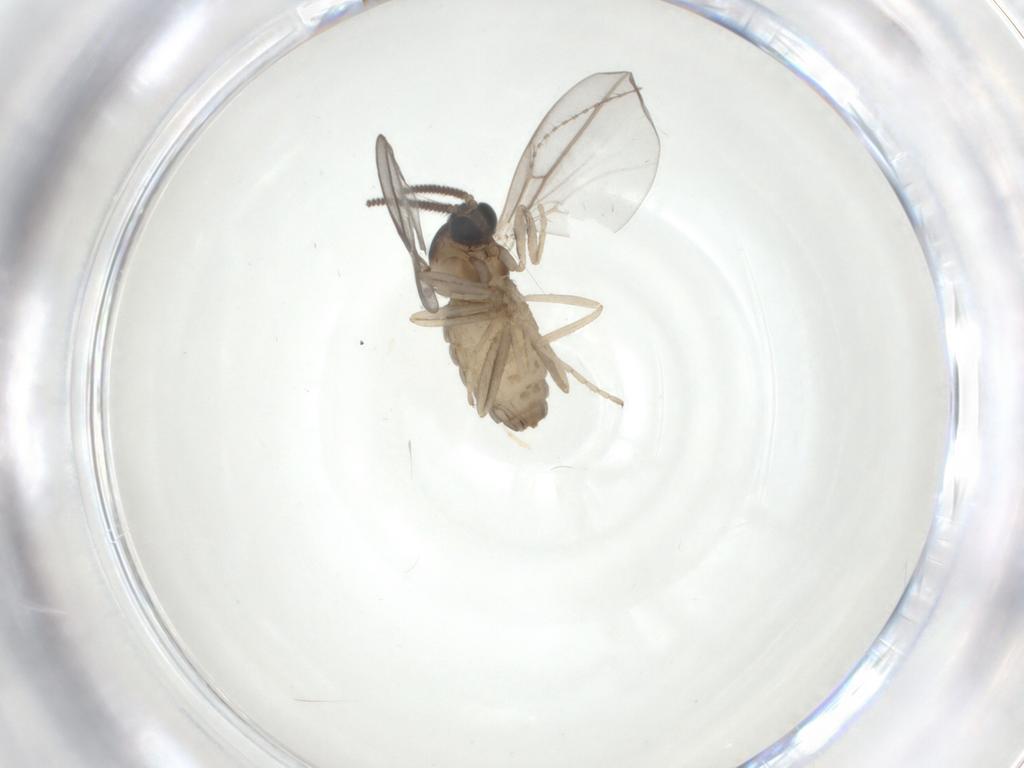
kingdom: Animalia
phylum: Arthropoda
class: Insecta
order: Diptera
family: Cecidomyiidae
